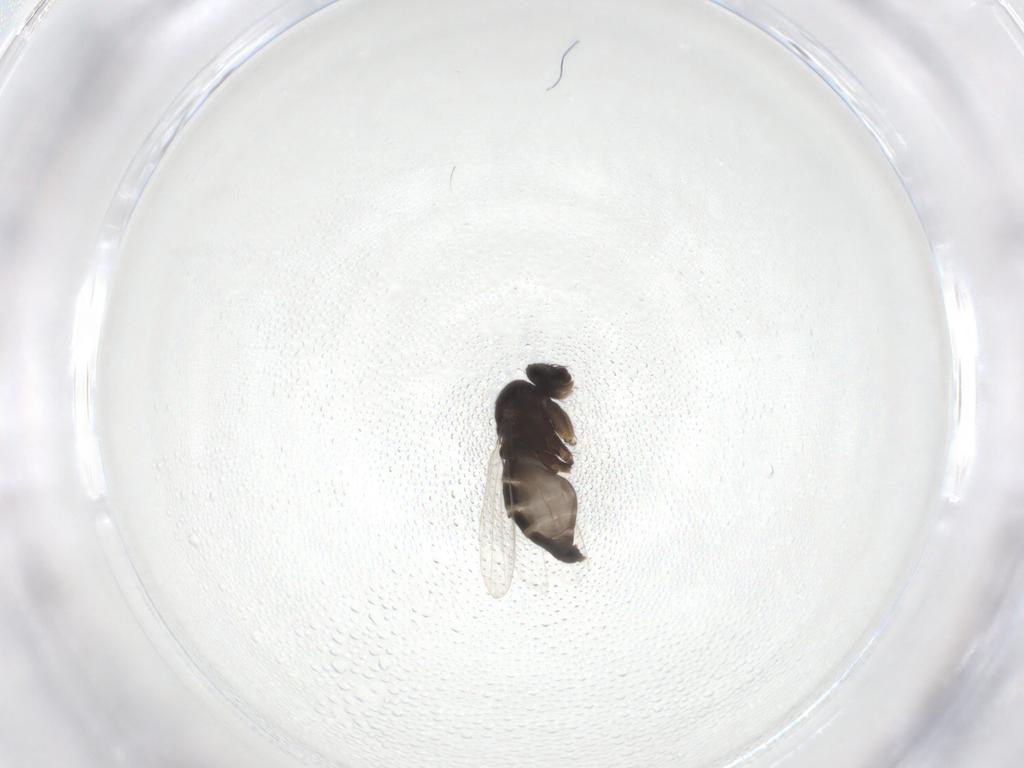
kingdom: Animalia
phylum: Arthropoda
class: Insecta
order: Diptera
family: Phoridae
